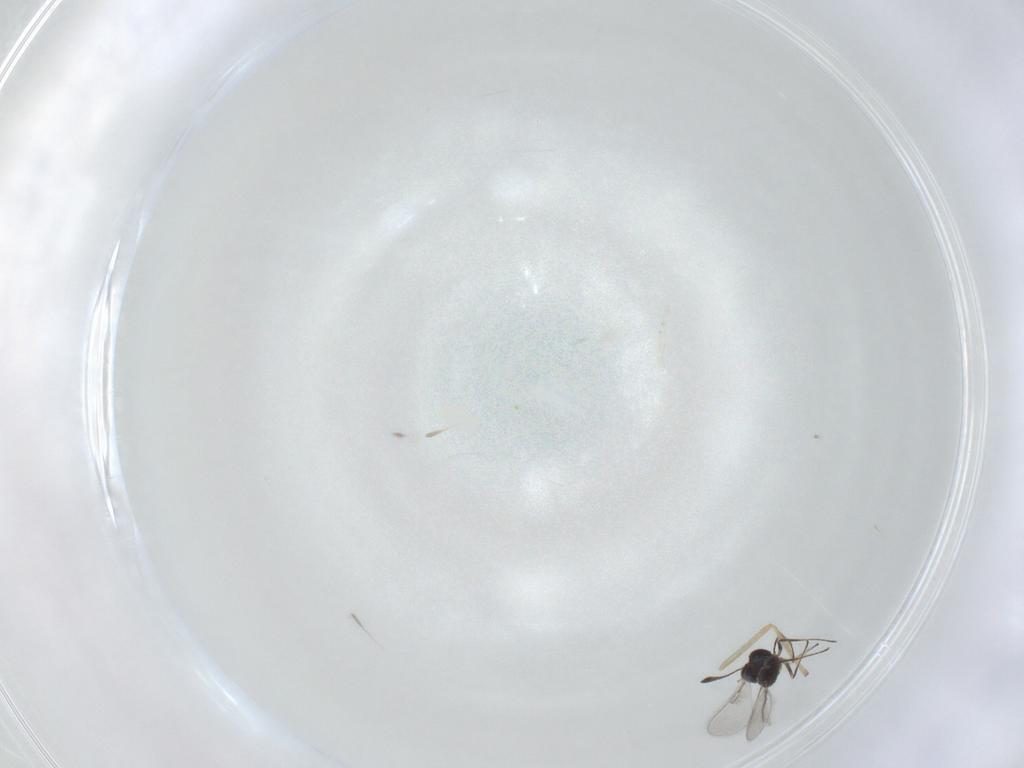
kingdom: Animalia
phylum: Arthropoda
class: Insecta
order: Hymenoptera
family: Mymaridae
